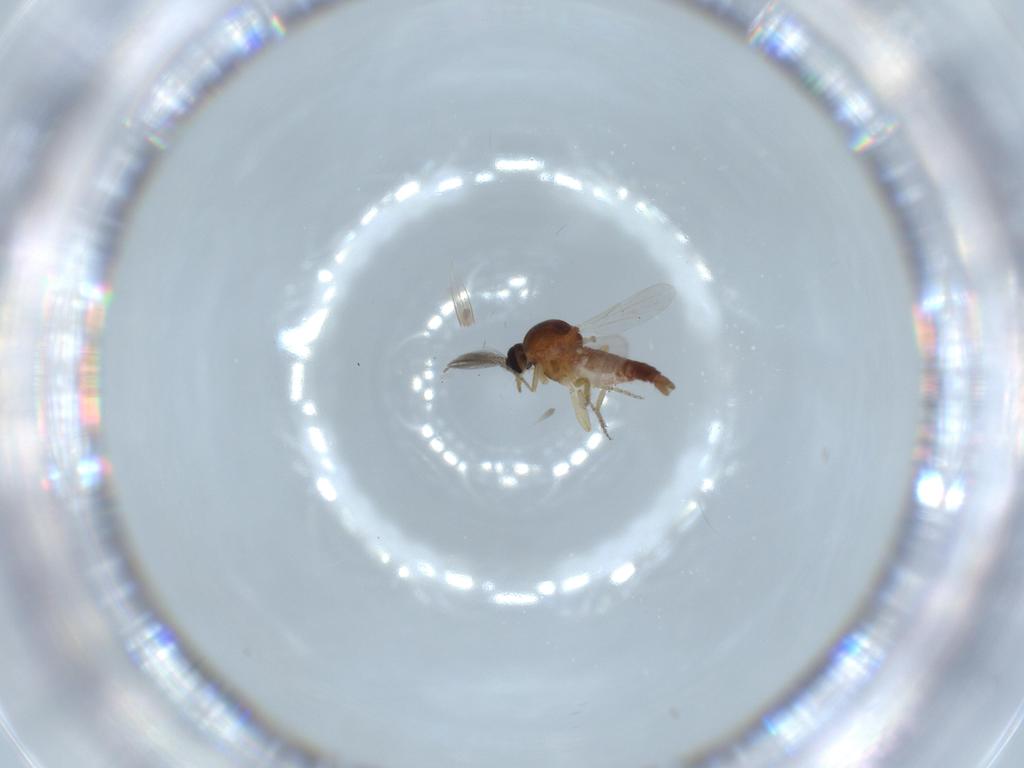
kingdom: Animalia
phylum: Arthropoda
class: Insecta
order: Diptera
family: Ceratopogonidae
